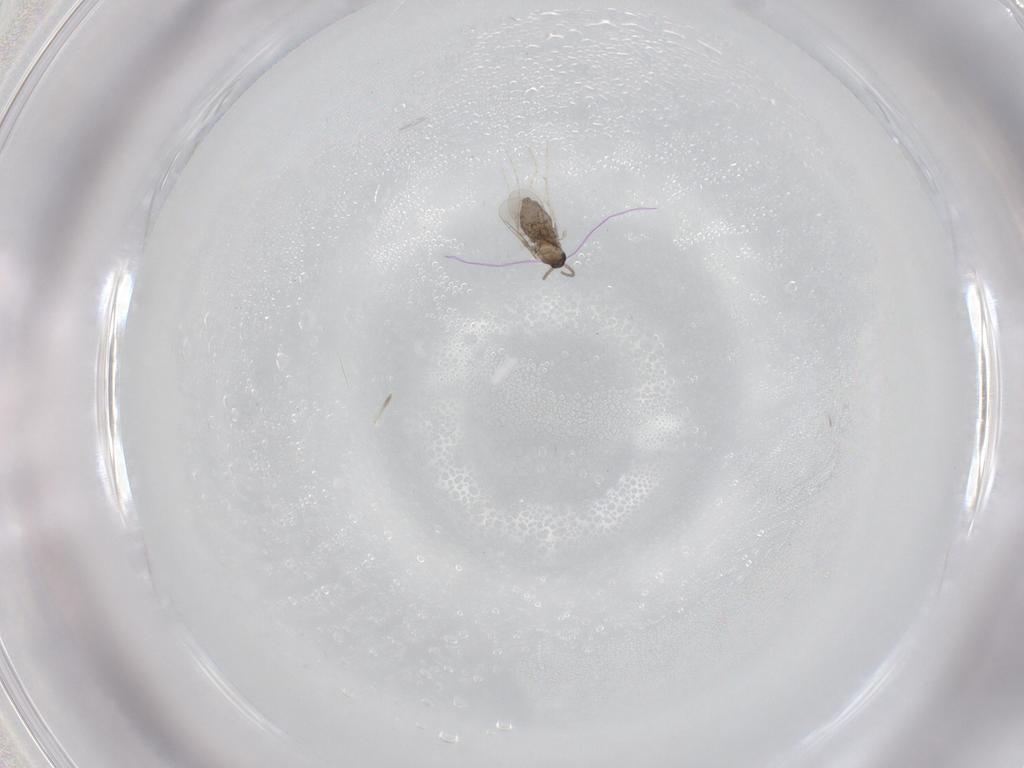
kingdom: Animalia
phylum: Arthropoda
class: Insecta
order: Diptera
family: Cecidomyiidae
